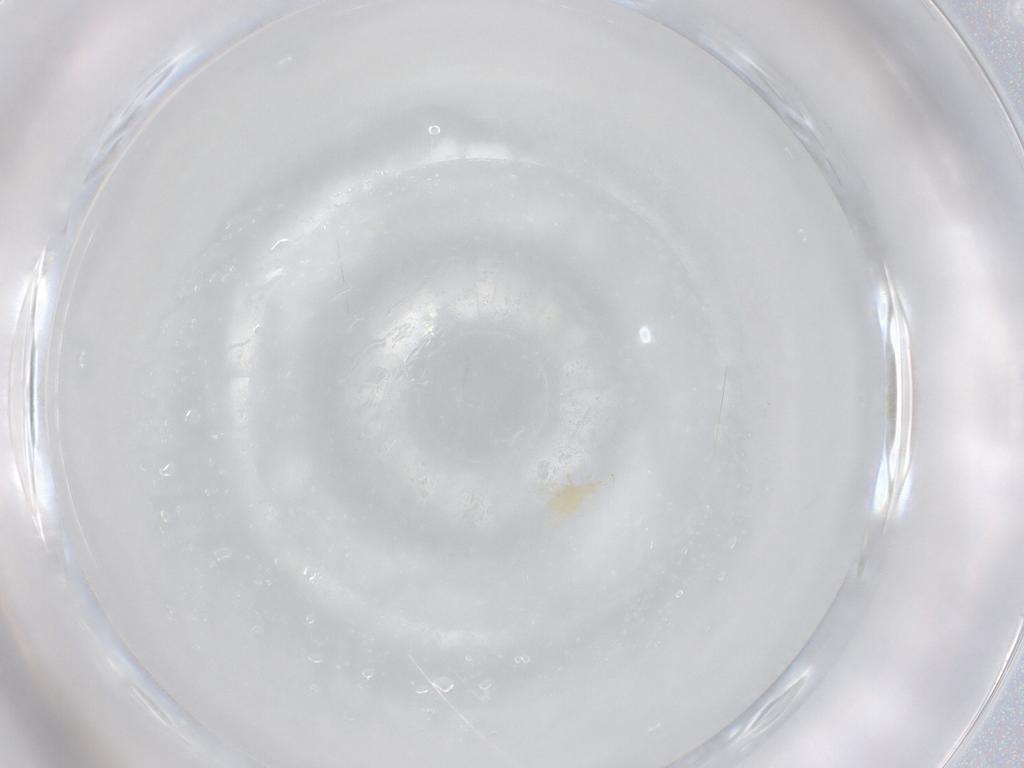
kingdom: Animalia
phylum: Arthropoda
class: Arachnida
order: Trombidiformes
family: Cunaxidae
